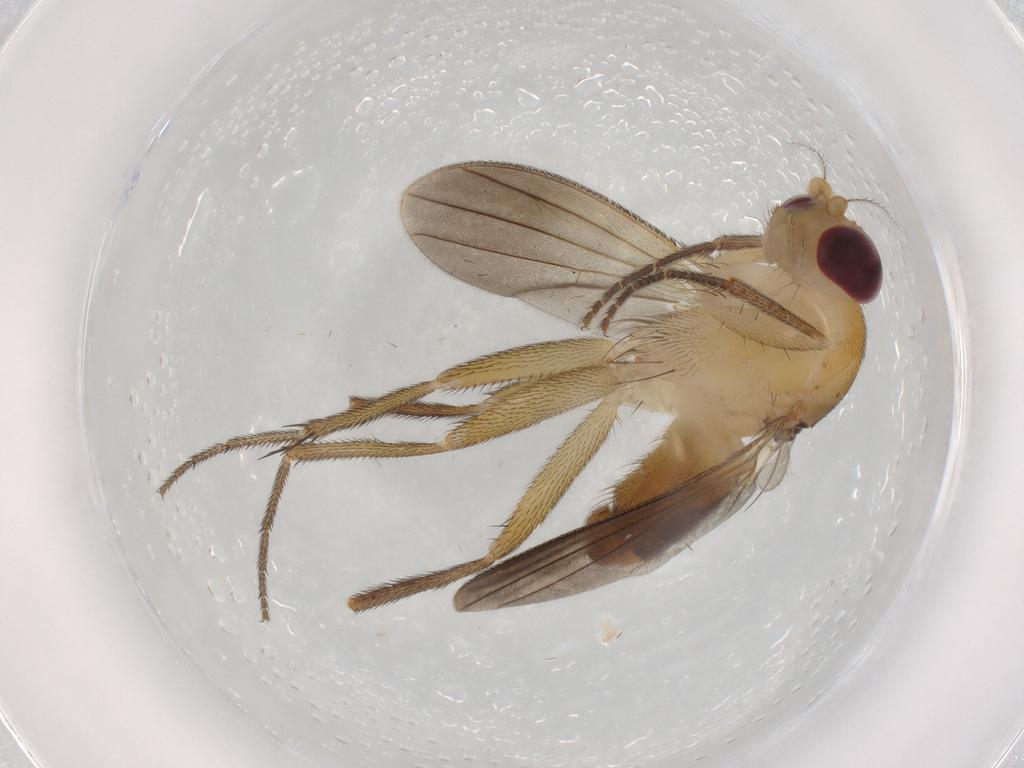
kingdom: Animalia
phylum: Arthropoda
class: Insecta
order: Diptera
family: Clusiidae
